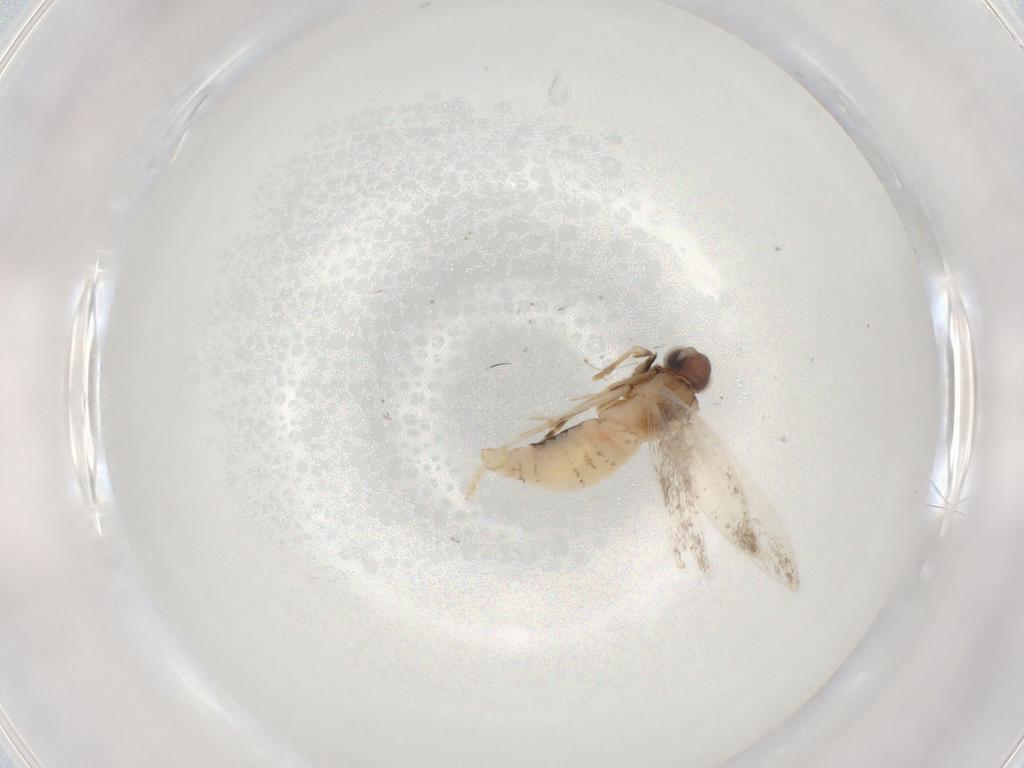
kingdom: Animalia
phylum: Arthropoda
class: Insecta
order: Lepidoptera
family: Tineidae
